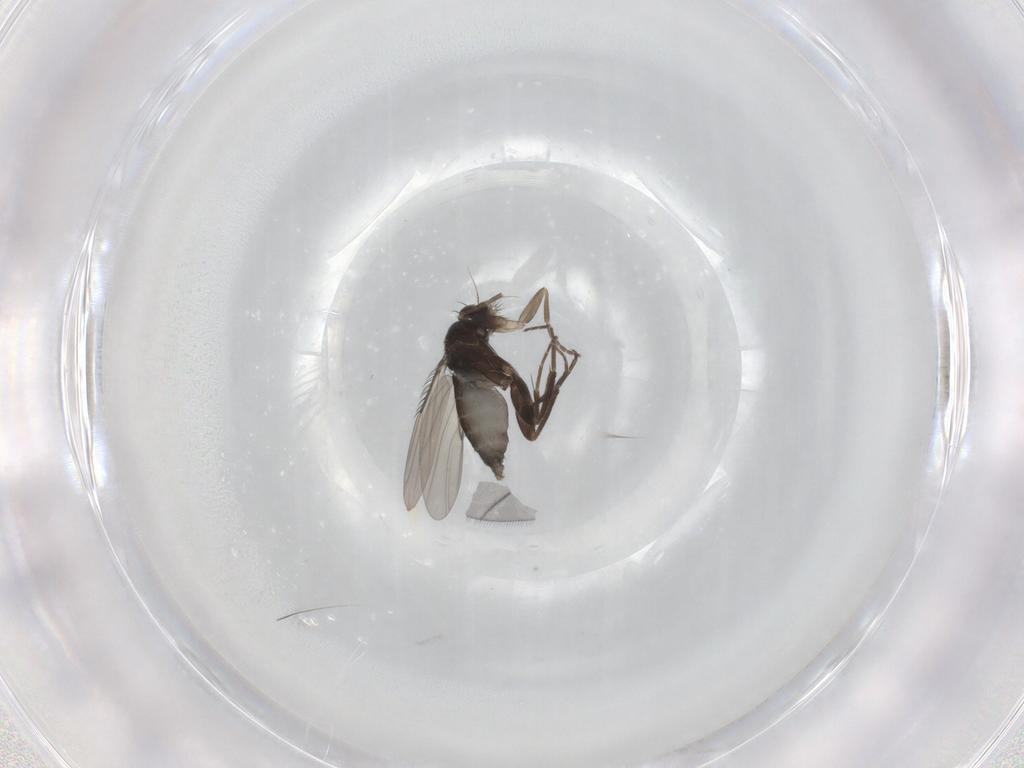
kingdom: Animalia
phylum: Arthropoda
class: Insecta
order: Diptera
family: Phoridae
